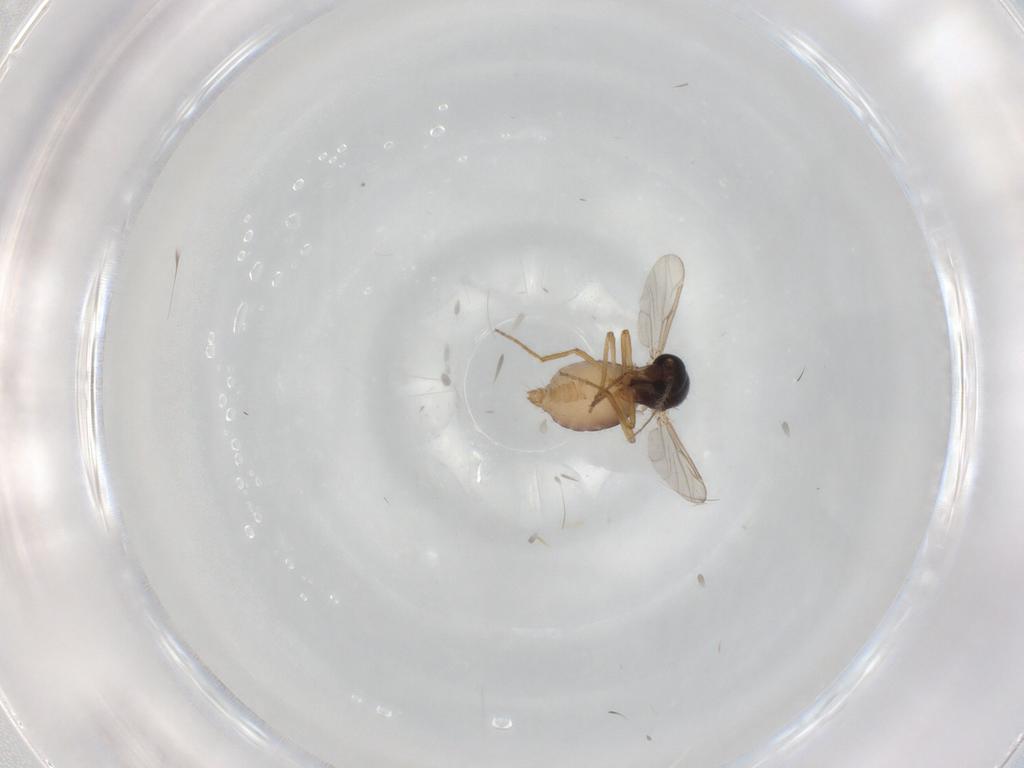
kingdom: Animalia
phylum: Arthropoda
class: Insecta
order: Diptera
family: Ceratopogonidae
